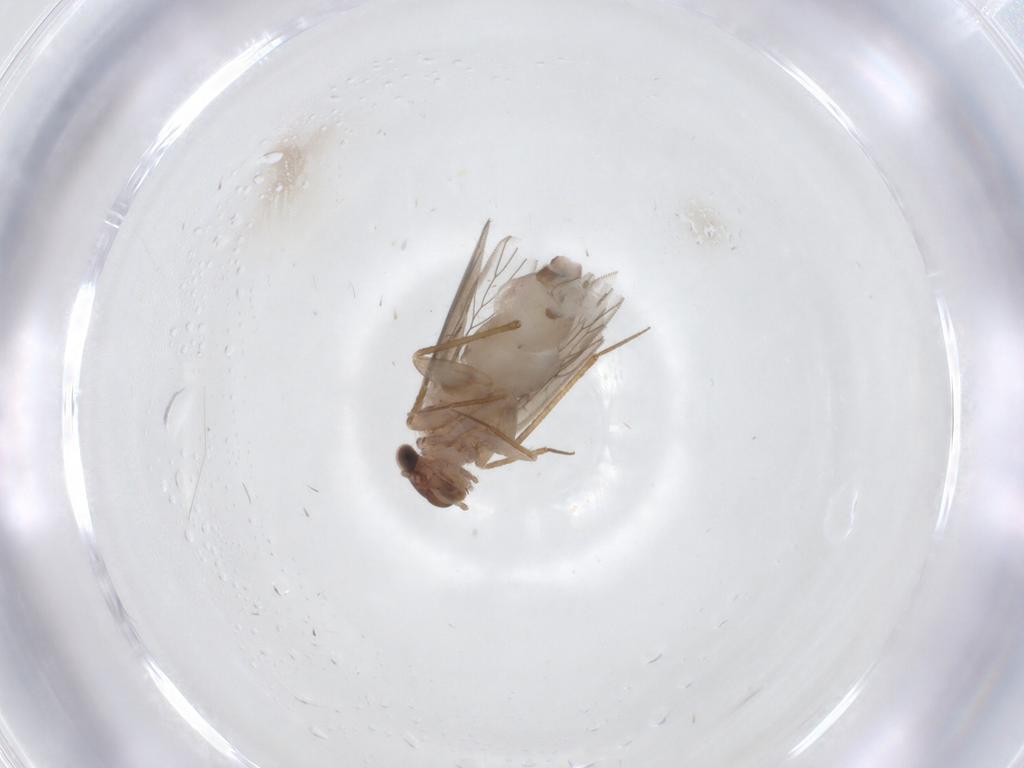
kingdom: Animalia
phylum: Arthropoda
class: Insecta
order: Psocodea
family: Lepidopsocidae
